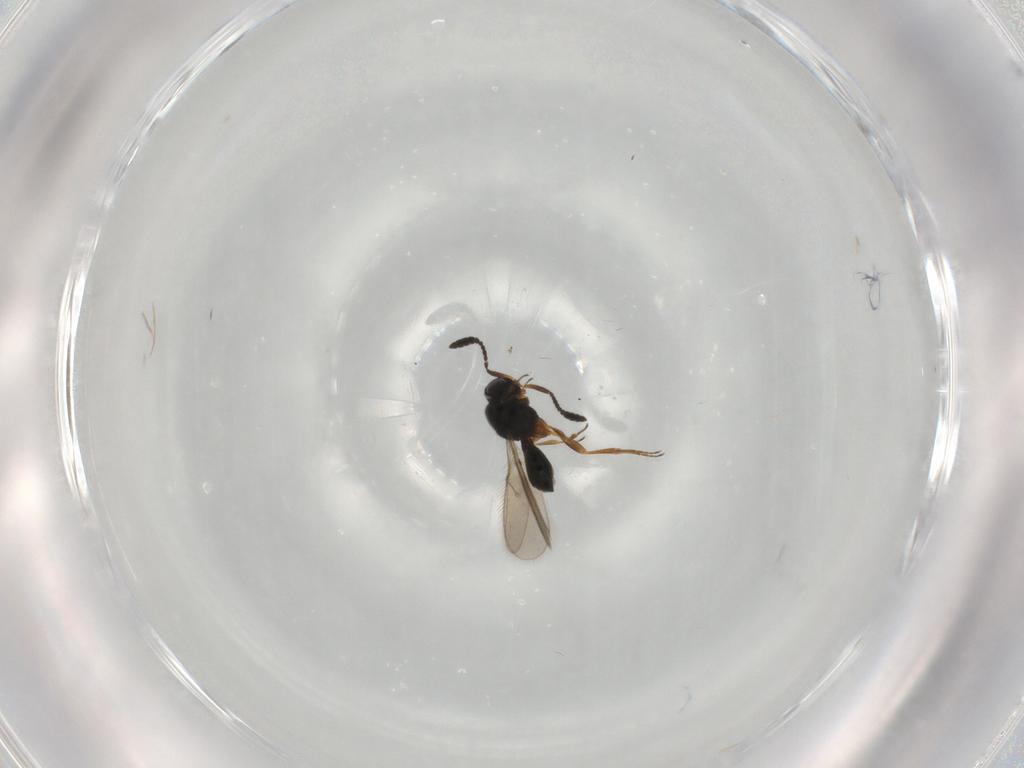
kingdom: Animalia
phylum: Arthropoda
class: Insecta
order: Hymenoptera
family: Scelionidae
